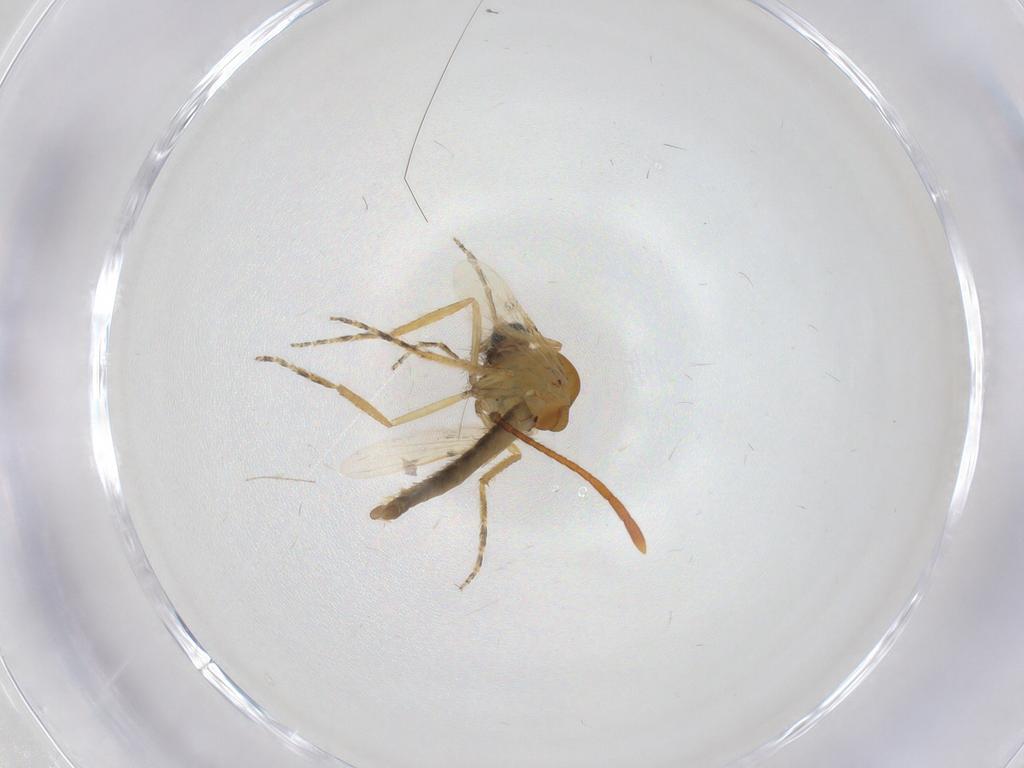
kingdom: Animalia
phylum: Arthropoda
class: Insecta
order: Diptera
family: Ceratopogonidae
